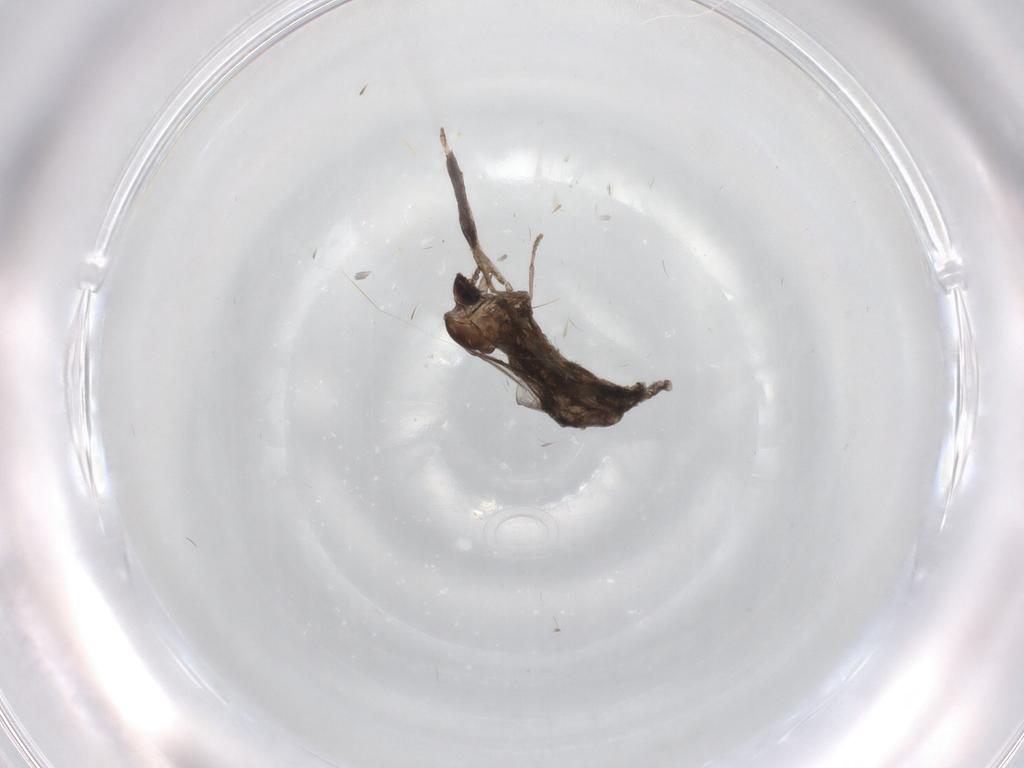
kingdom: Animalia
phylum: Arthropoda
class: Insecta
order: Diptera
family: Cecidomyiidae
